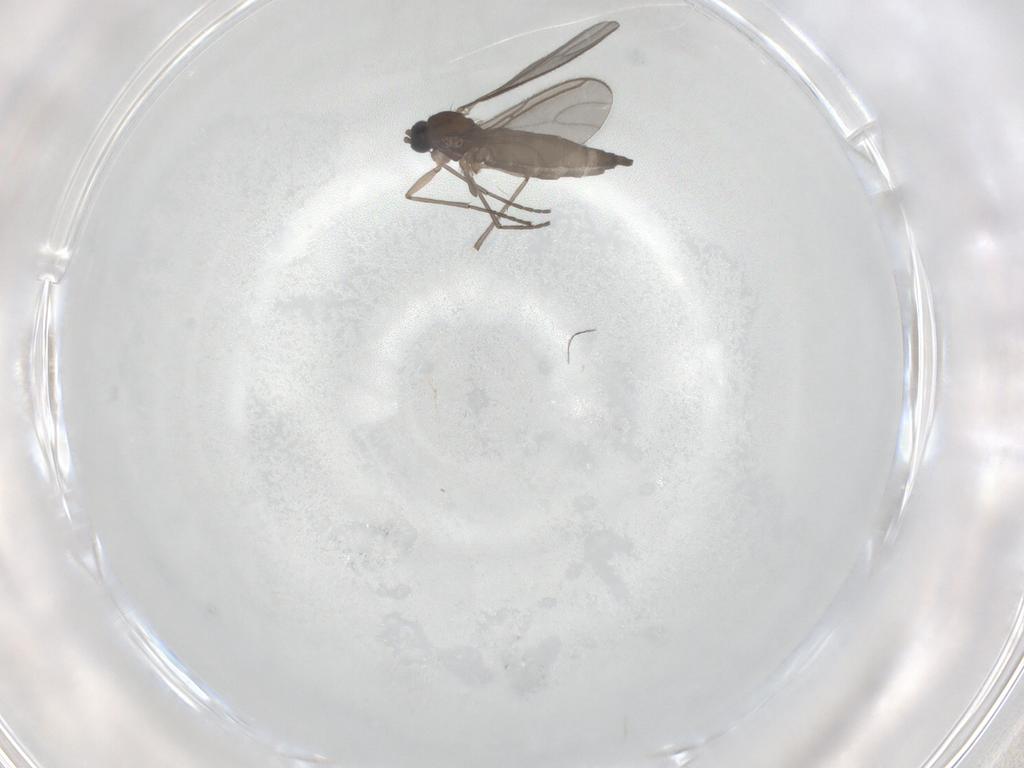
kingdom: Animalia
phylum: Arthropoda
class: Insecta
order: Diptera
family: Sciaridae
